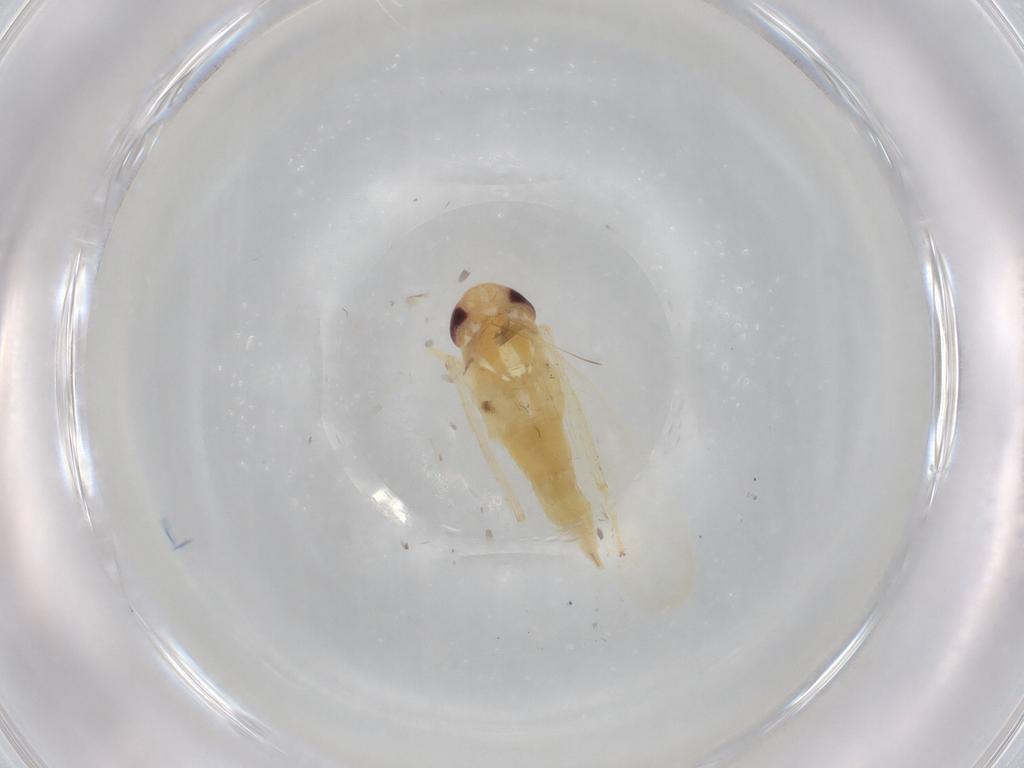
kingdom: Animalia
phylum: Arthropoda
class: Insecta
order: Hemiptera
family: Cicadellidae
